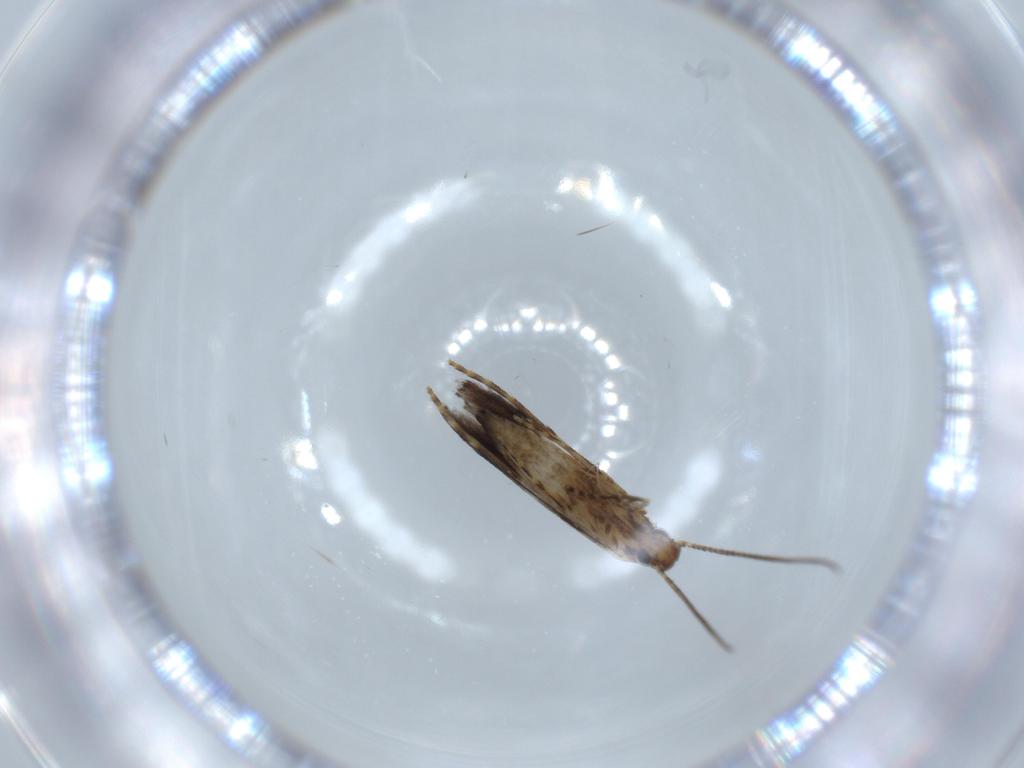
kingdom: Animalia
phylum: Arthropoda
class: Insecta
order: Lepidoptera
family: Gracillariidae
